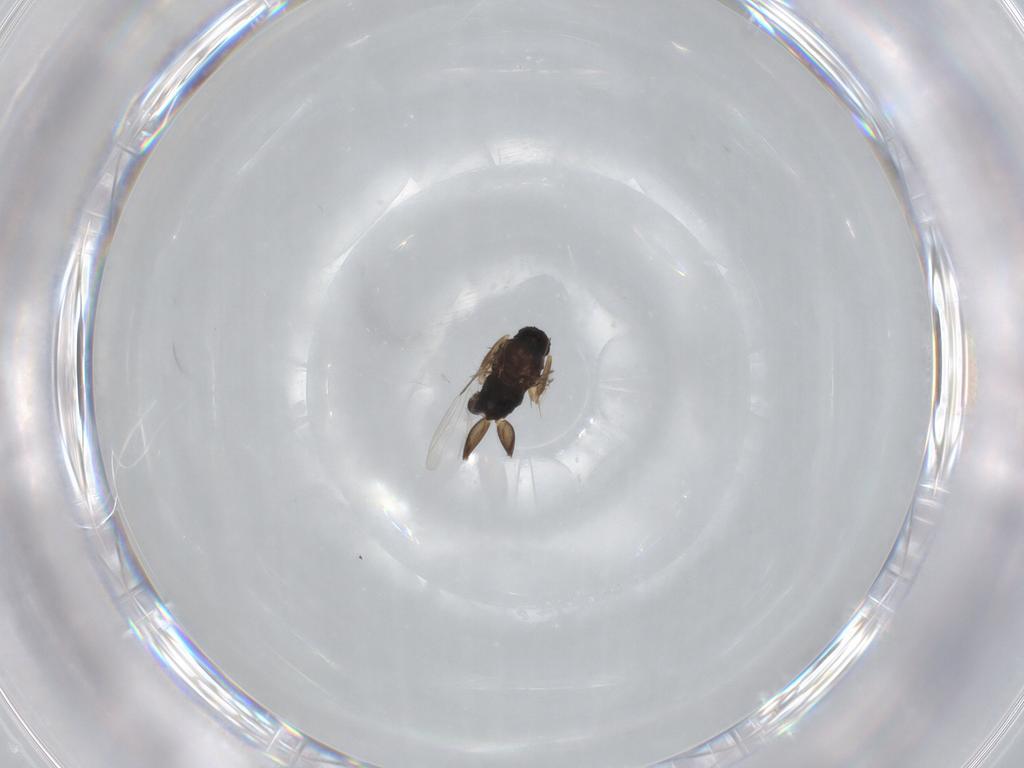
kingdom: Animalia
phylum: Arthropoda
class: Insecta
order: Diptera
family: Phoridae
